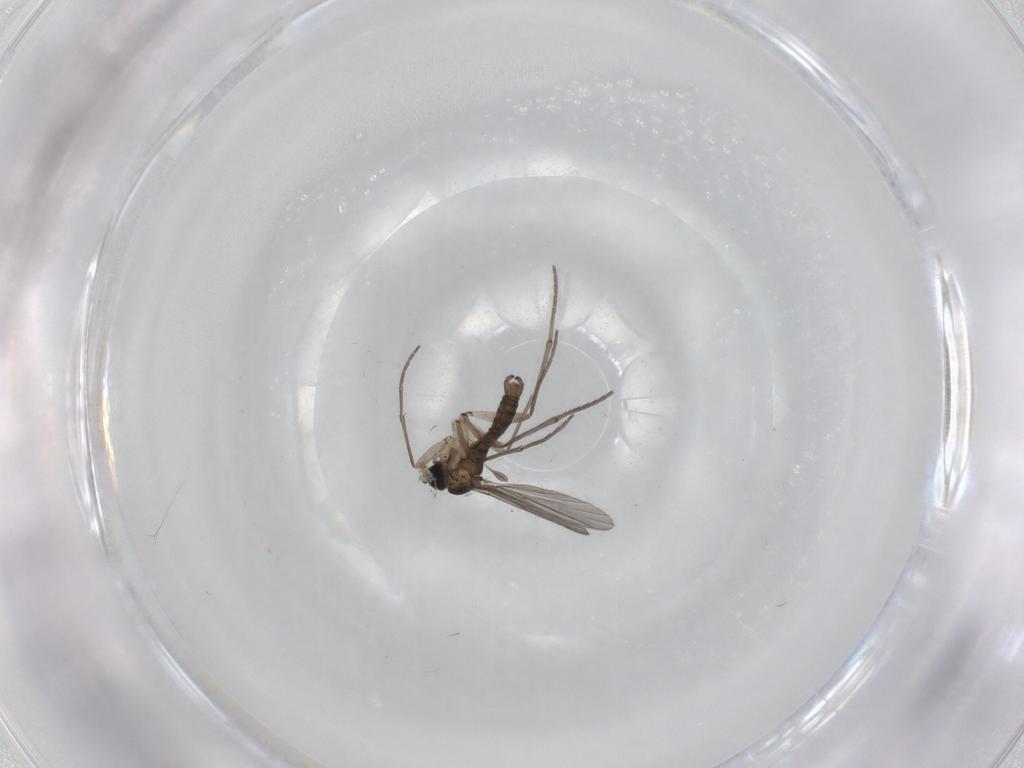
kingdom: Animalia
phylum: Arthropoda
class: Insecta
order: Diptera
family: Sciaridae
